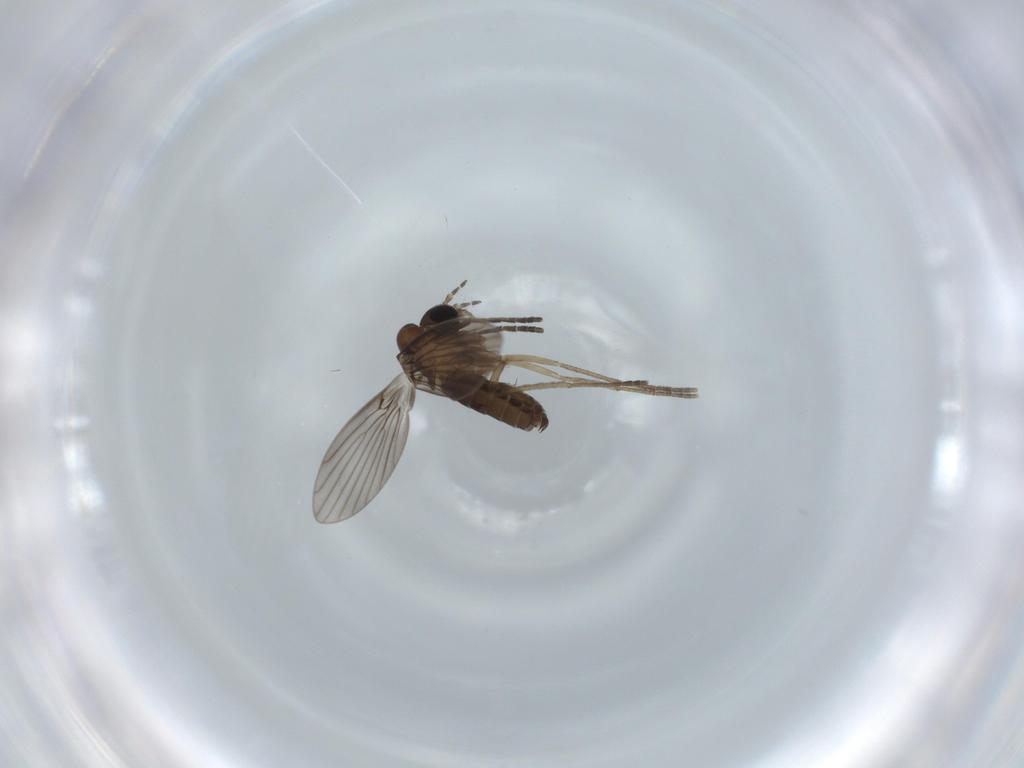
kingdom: Animalia
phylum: Arthropoda
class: Insecta
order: Diptera
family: Psychodidae
